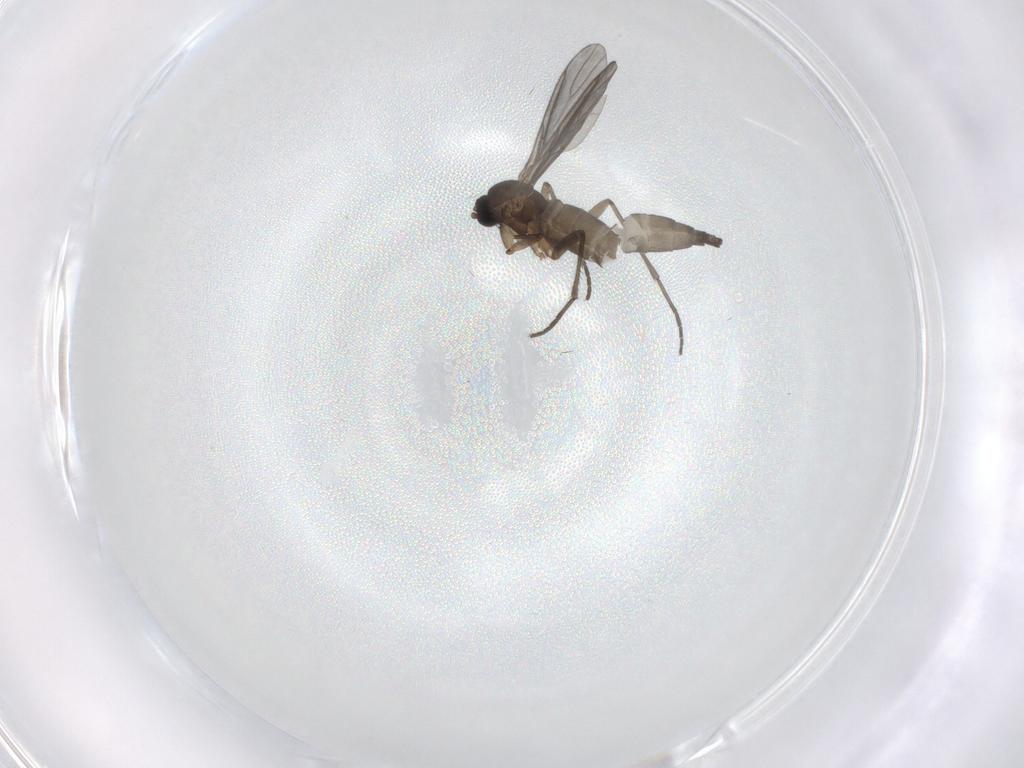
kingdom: Animalia
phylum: Arthropoda
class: Insecta
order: Diptera
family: Sciaridae
